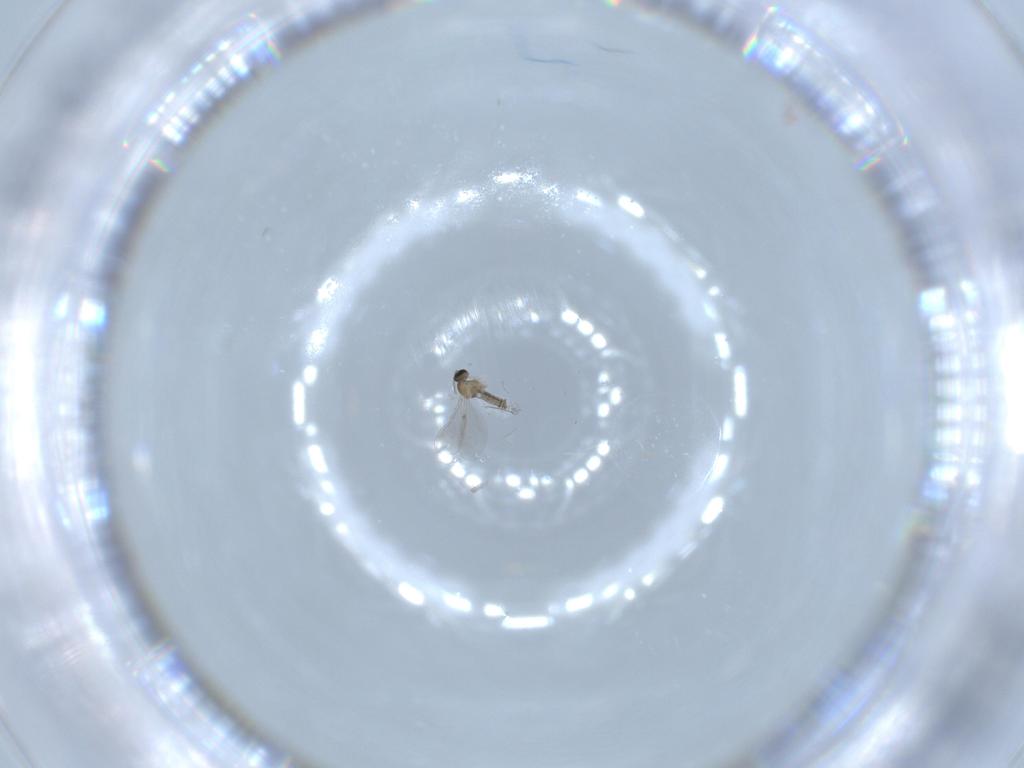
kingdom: Animalia
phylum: Arthropoda
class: Insecta
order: Diptera
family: Cecidomyiidae
